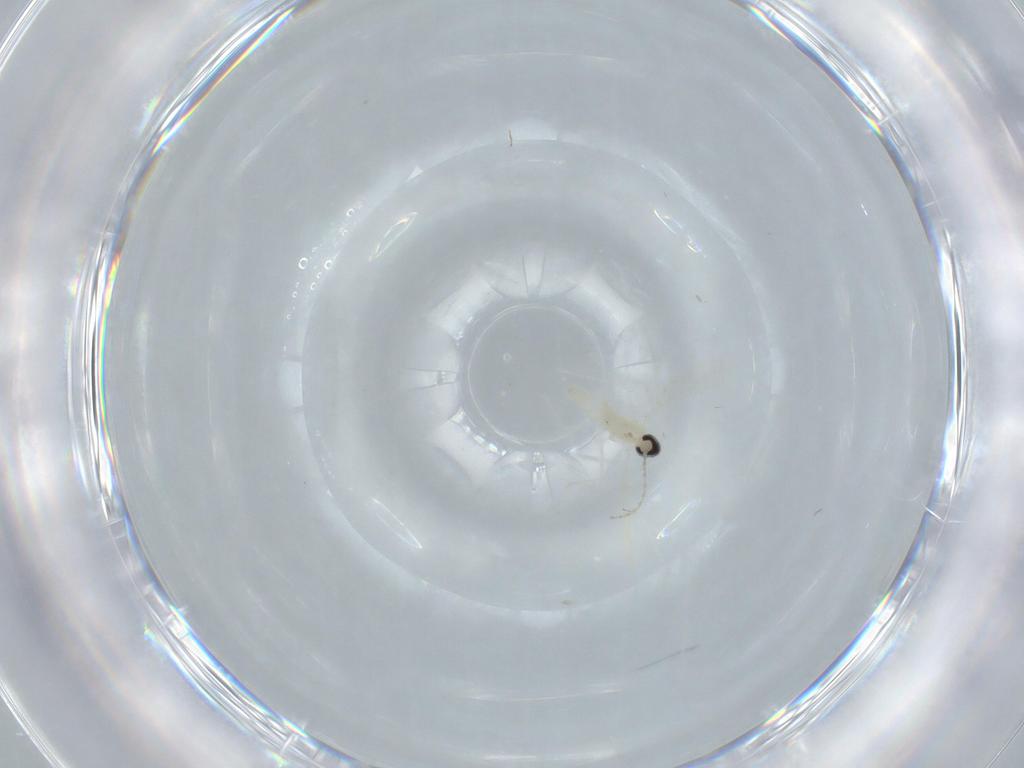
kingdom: Animalia
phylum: Arthropoda
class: Insecta
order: Diptera
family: Cecidomyiidae
